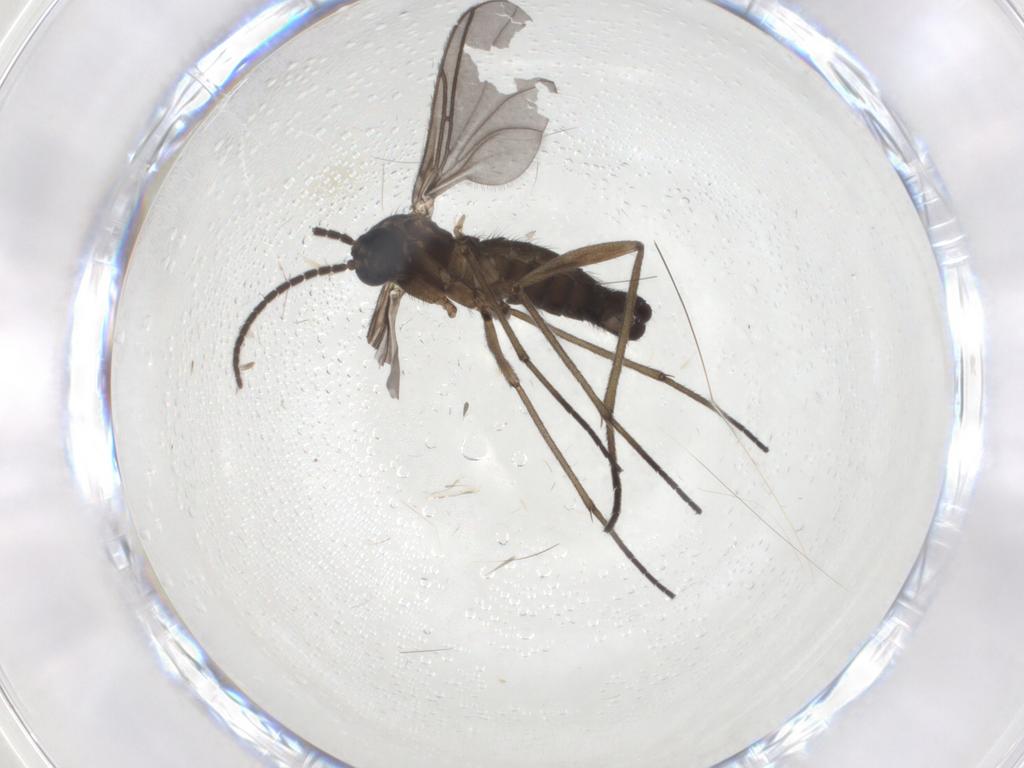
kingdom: Animalia
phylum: Arthropoda
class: Insecta
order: Diptera
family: Sciaridae
